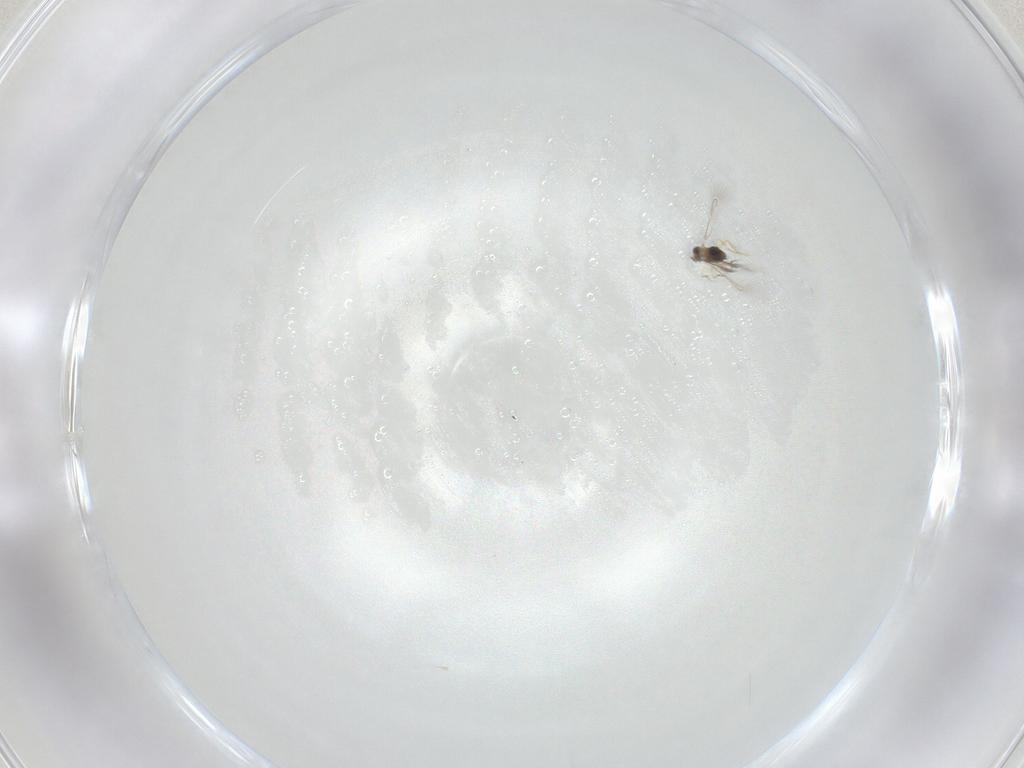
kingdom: Animalia
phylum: Arthropoda
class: Insecta
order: Hymenoptera
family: Mymaridae
